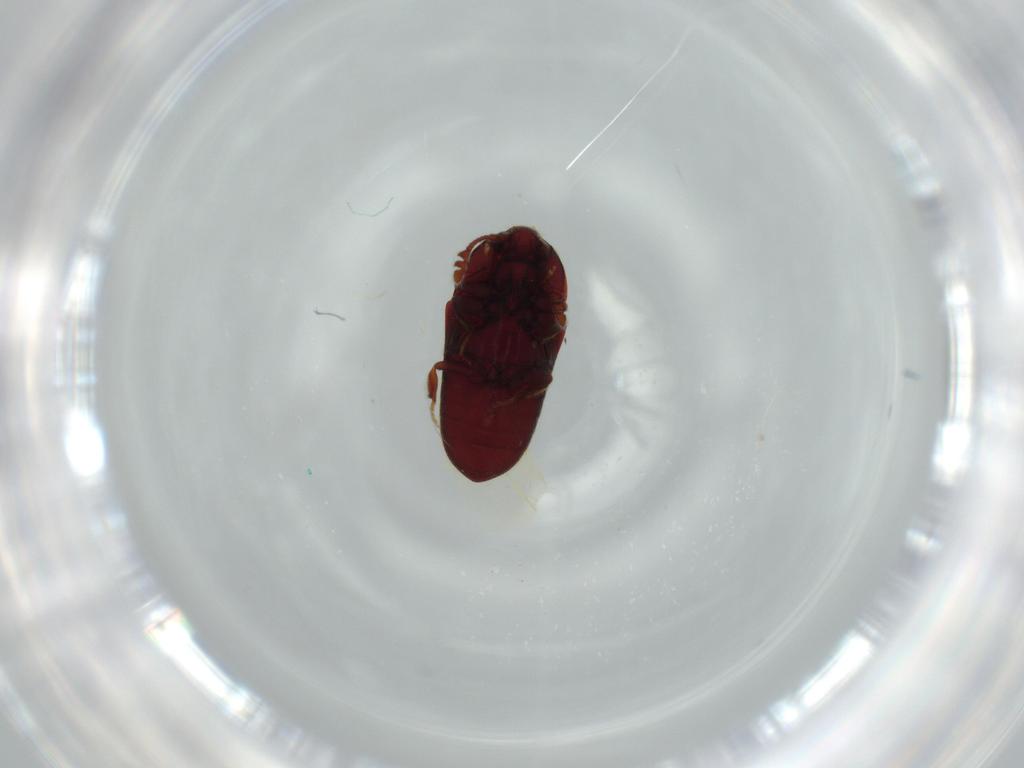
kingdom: Animalia
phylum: Arthropoda
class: Insecta
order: Coleoptera
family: Throscidae
